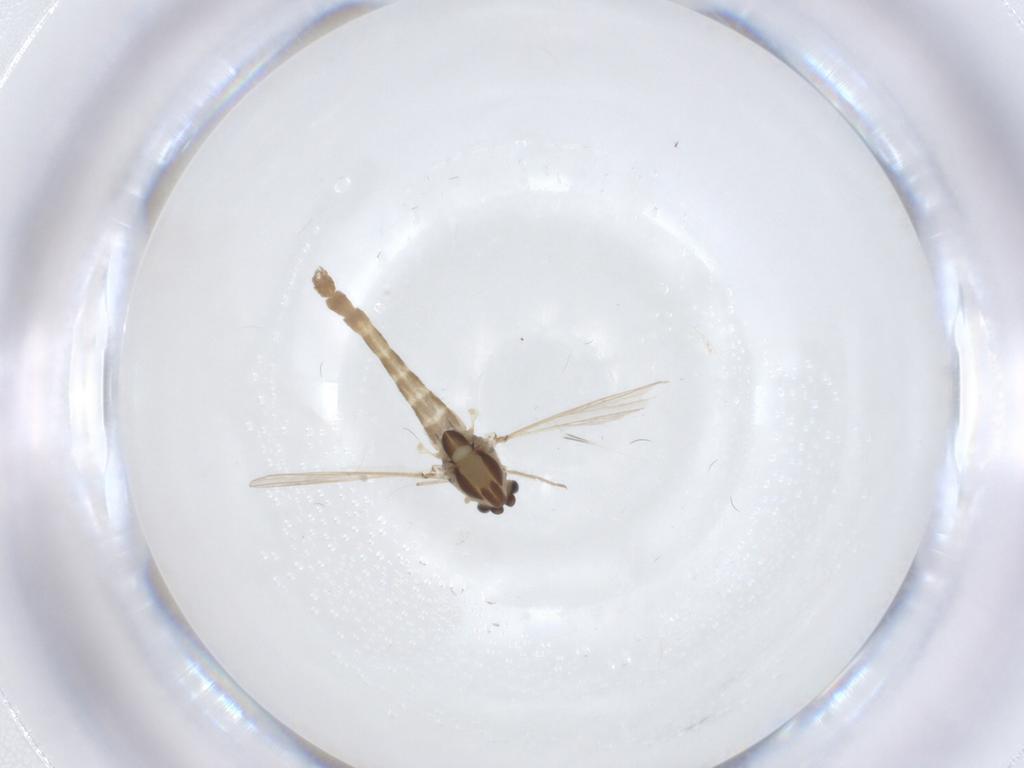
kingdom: Animalia
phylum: Arthropoda
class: Insecta
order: Diptera
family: Chironomidae
